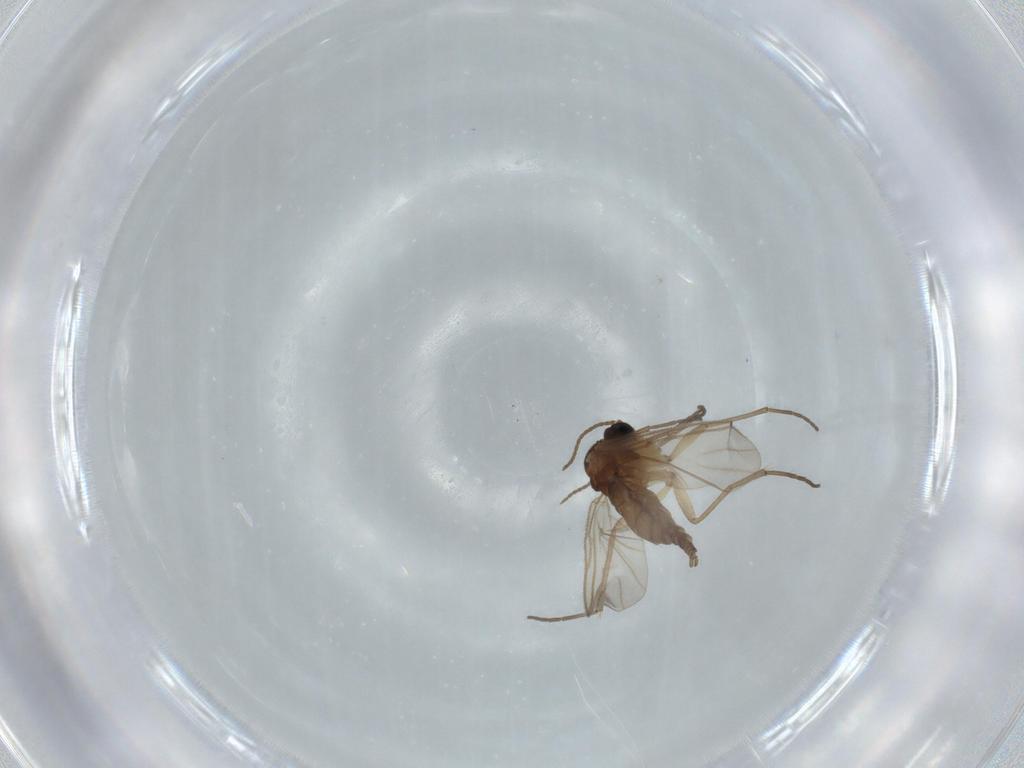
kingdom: Animalia
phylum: Arthropoda
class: Insecta
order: Diptera
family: Sciaridae
